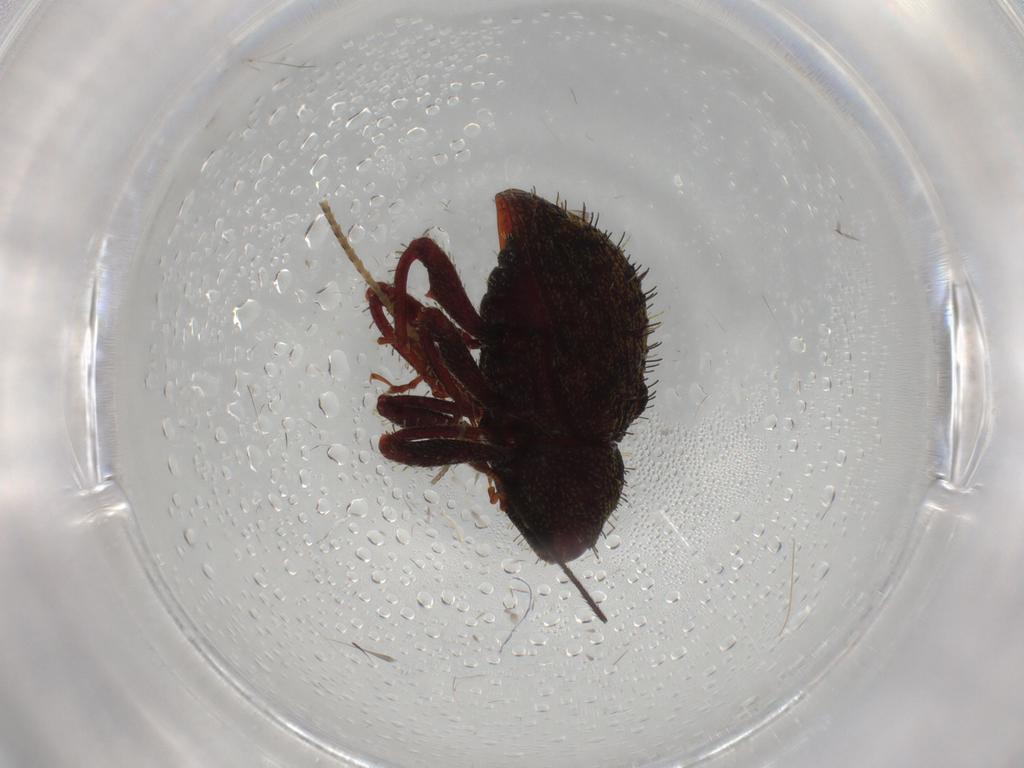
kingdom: Animalia
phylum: Arthropoda
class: Insecta
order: Coleoptera
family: Curculionidae
